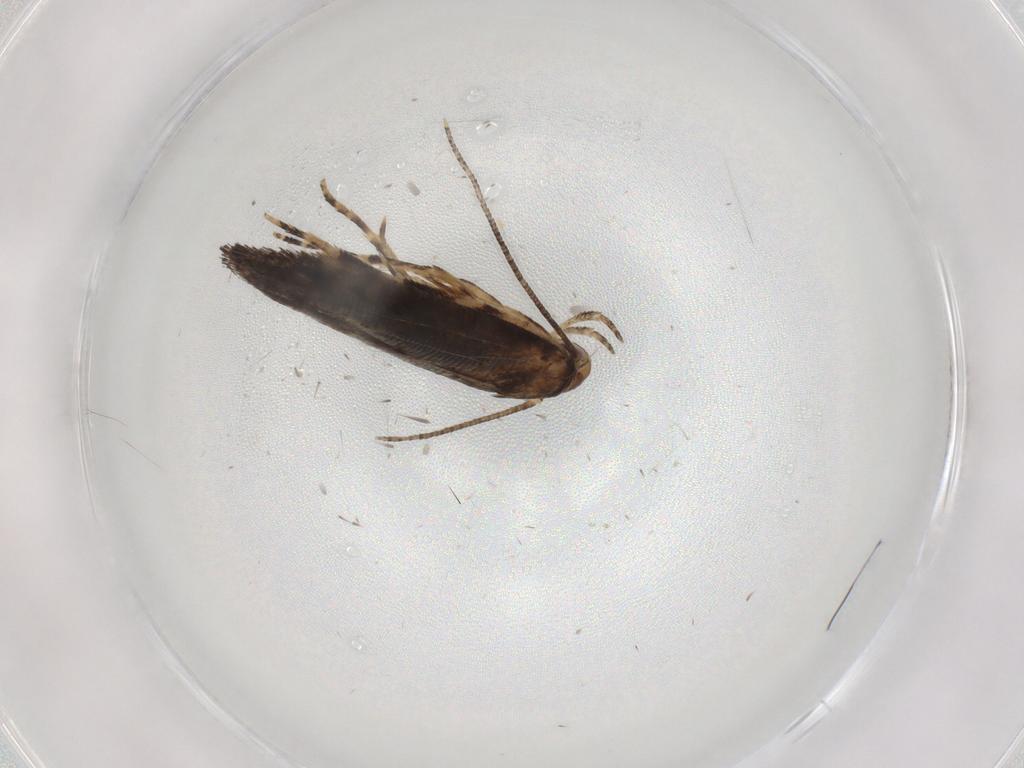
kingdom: Animalia
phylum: Arthropoda
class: Insecta
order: Lepidoptera
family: Momphidae
